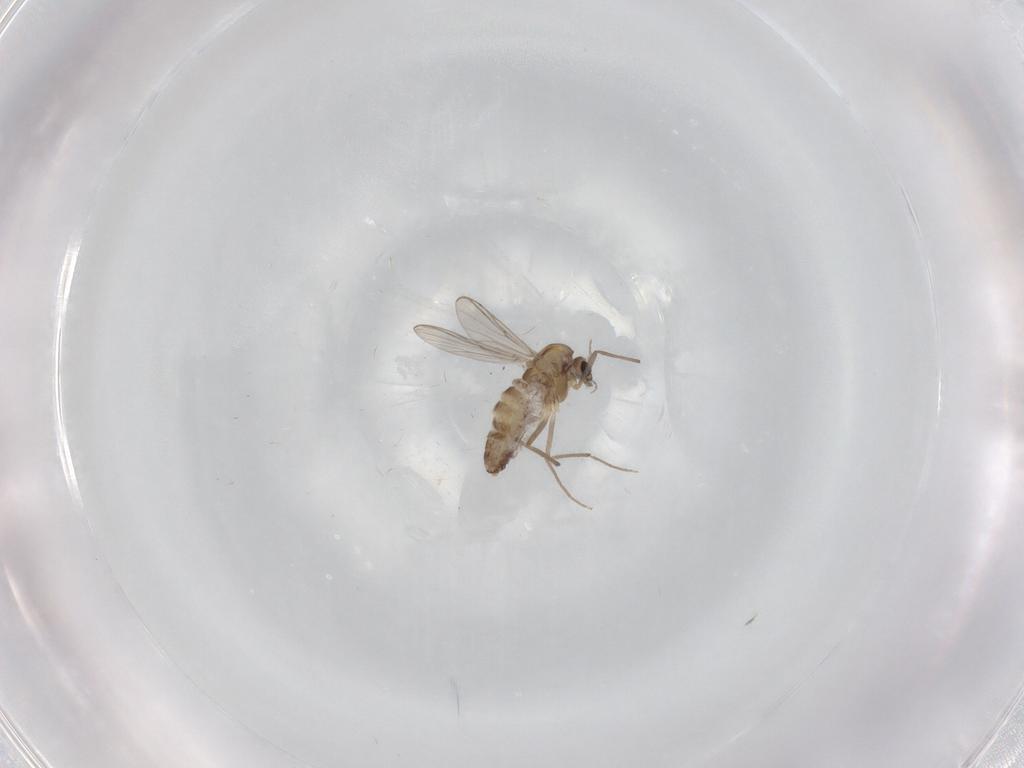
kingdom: Animalia
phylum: Arthropoda
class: Insecta
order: Diptera
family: Chironomidae
